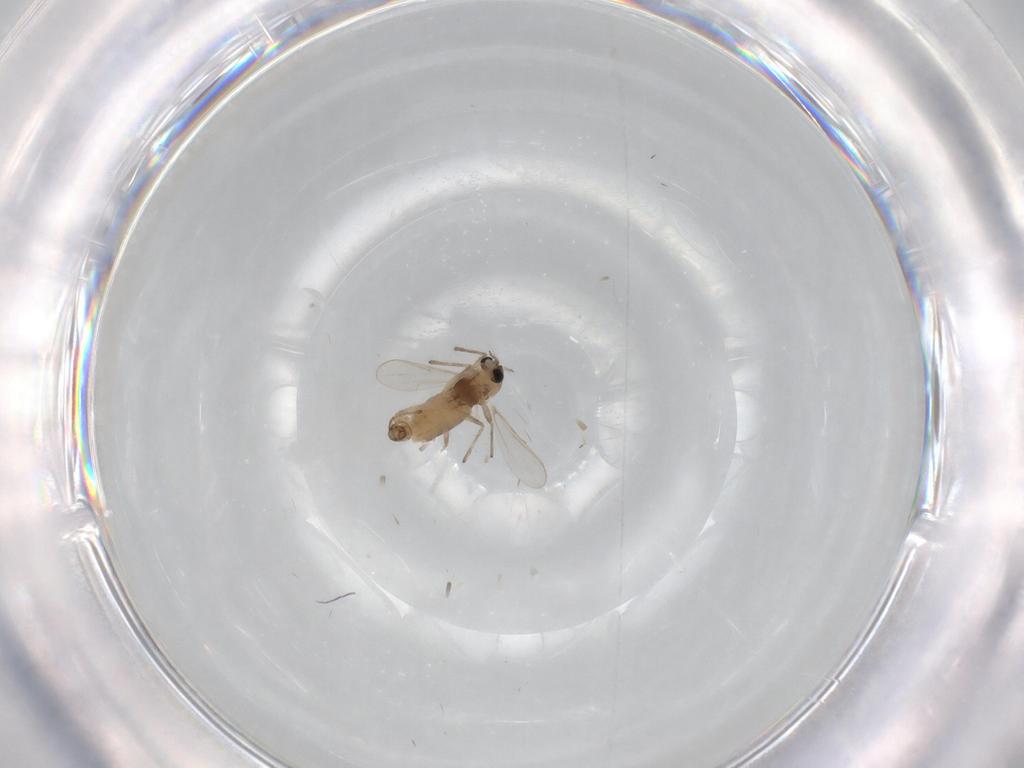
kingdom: Animalia
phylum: Arthropoda
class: Insecta
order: Diptera
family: Chironomidae
